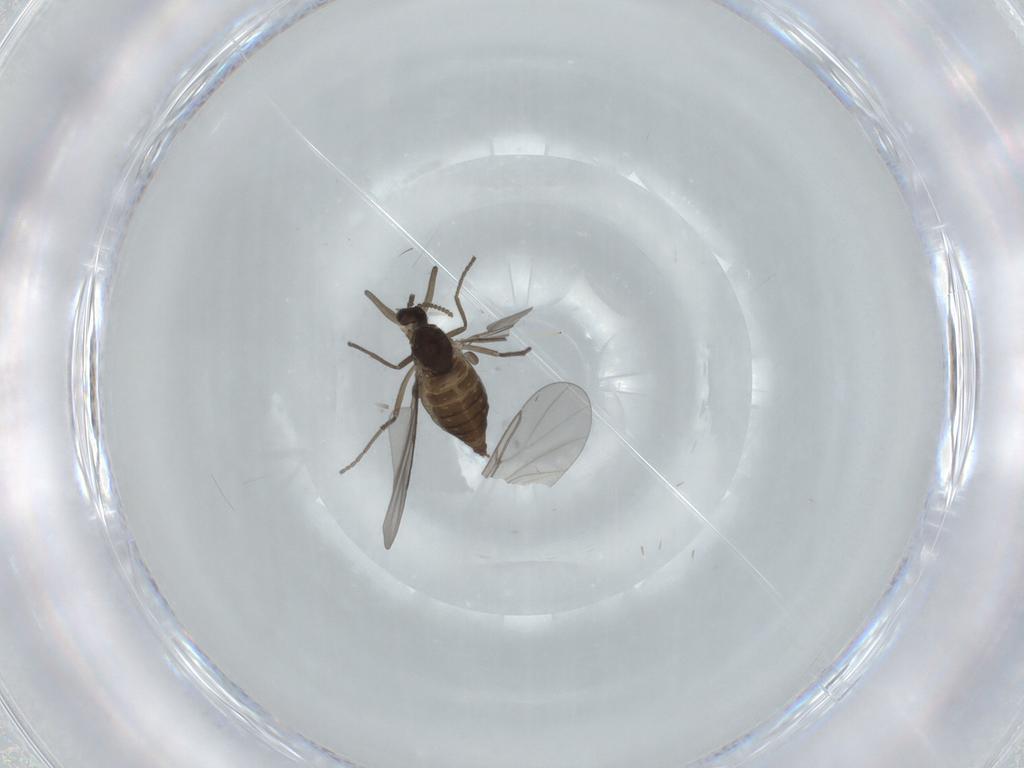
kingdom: Animalia
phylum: Arthropoda
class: Insecta
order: Diptera
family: Cecidomyiidae
